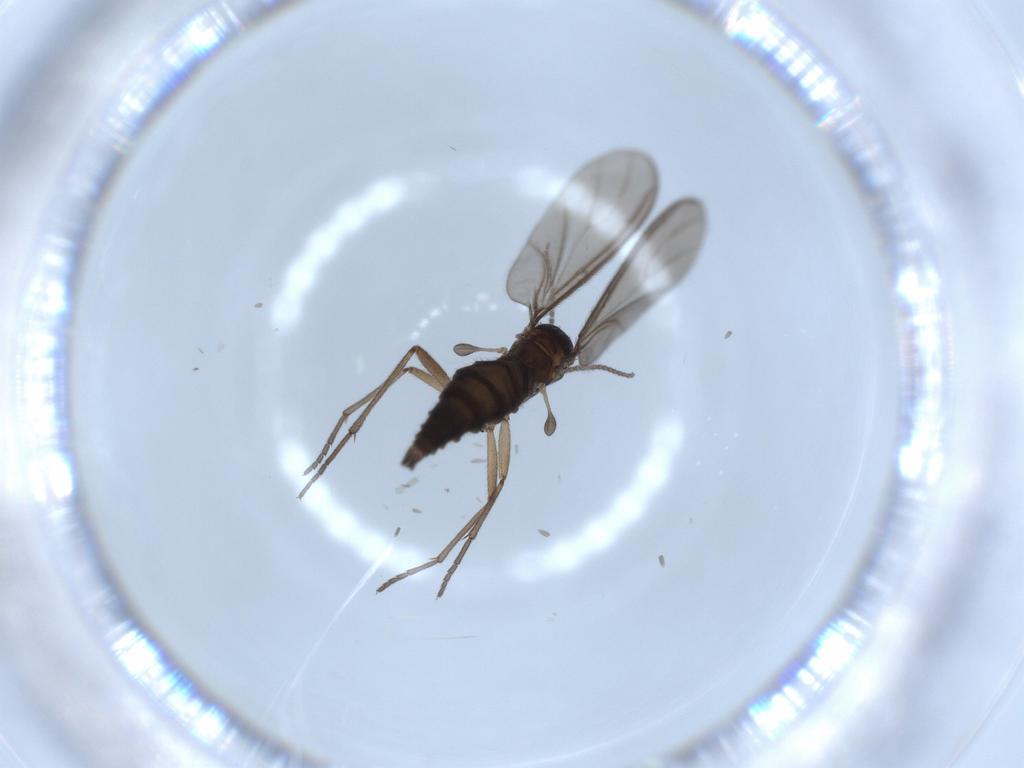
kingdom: Animalia
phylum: Arthropoda
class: Insecta
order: Diptera
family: Sciaridae
